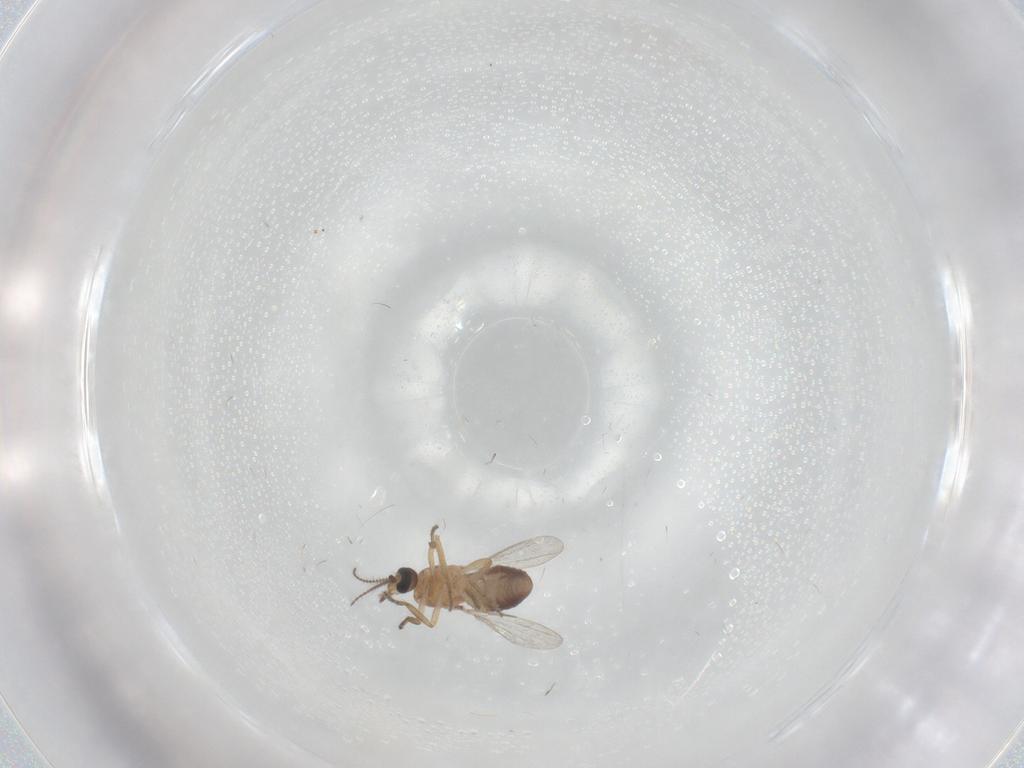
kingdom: Animalia
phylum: Arthropoda
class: Insecta
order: Diptera
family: Ceratopogonidae
